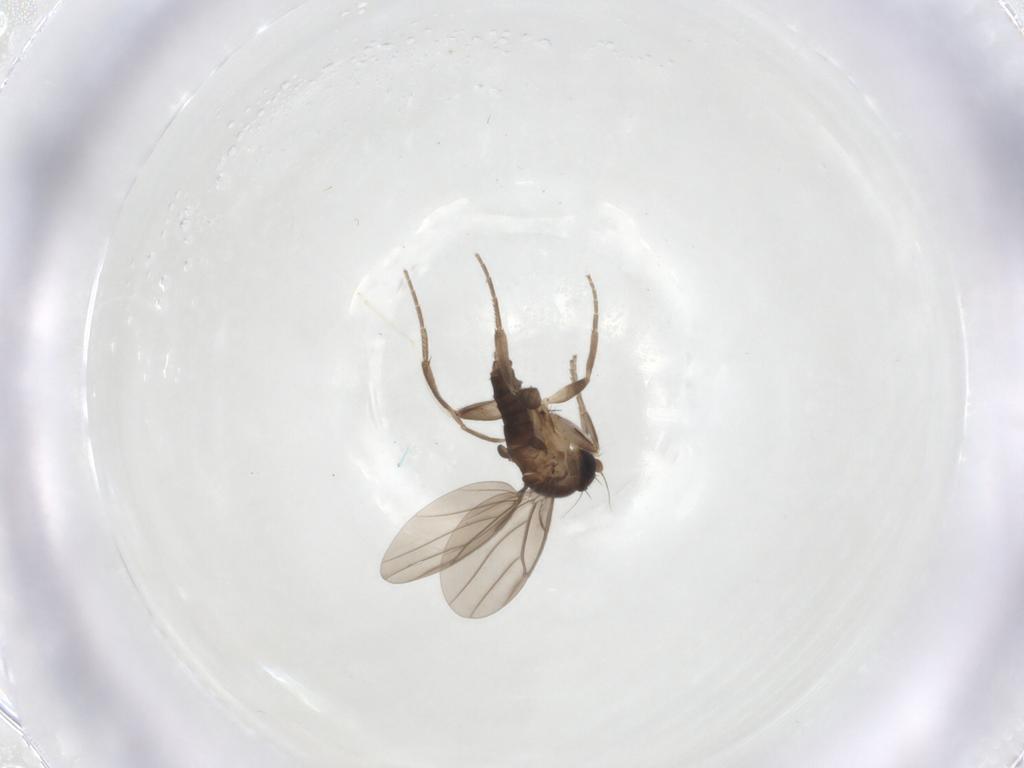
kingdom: Animalia
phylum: Arthropoda
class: Insecta
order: Diptera
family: Phoridae
